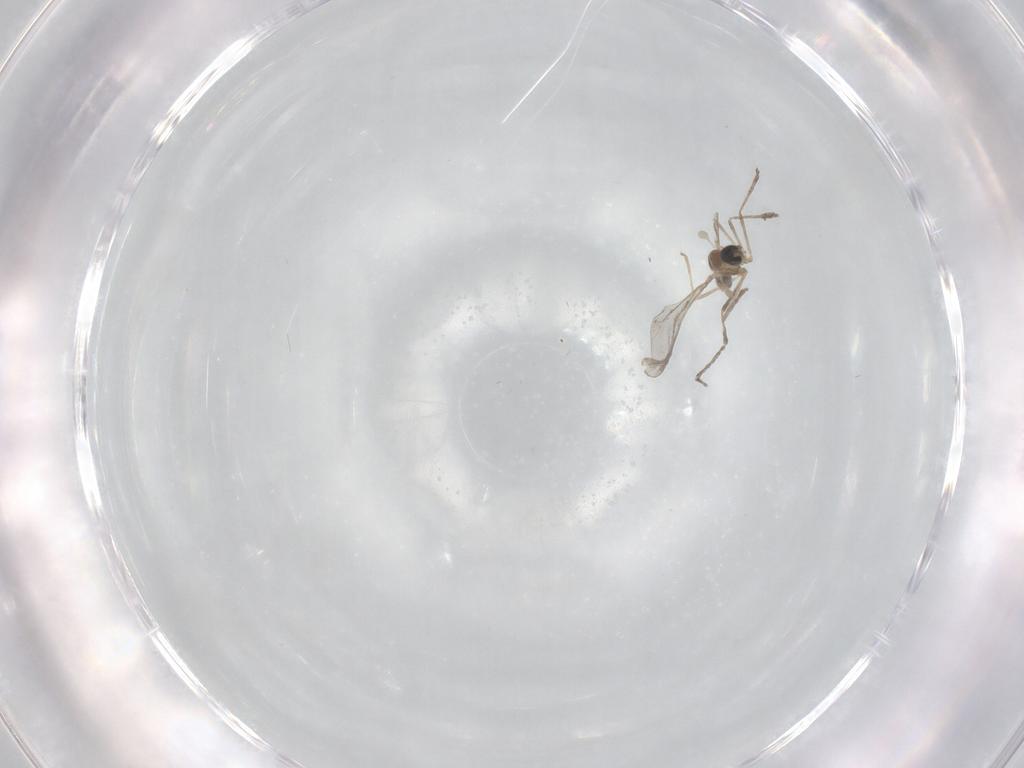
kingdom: Animalia
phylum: Arthropoda
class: Insecta
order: Diptera
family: Cecidomyiidae
